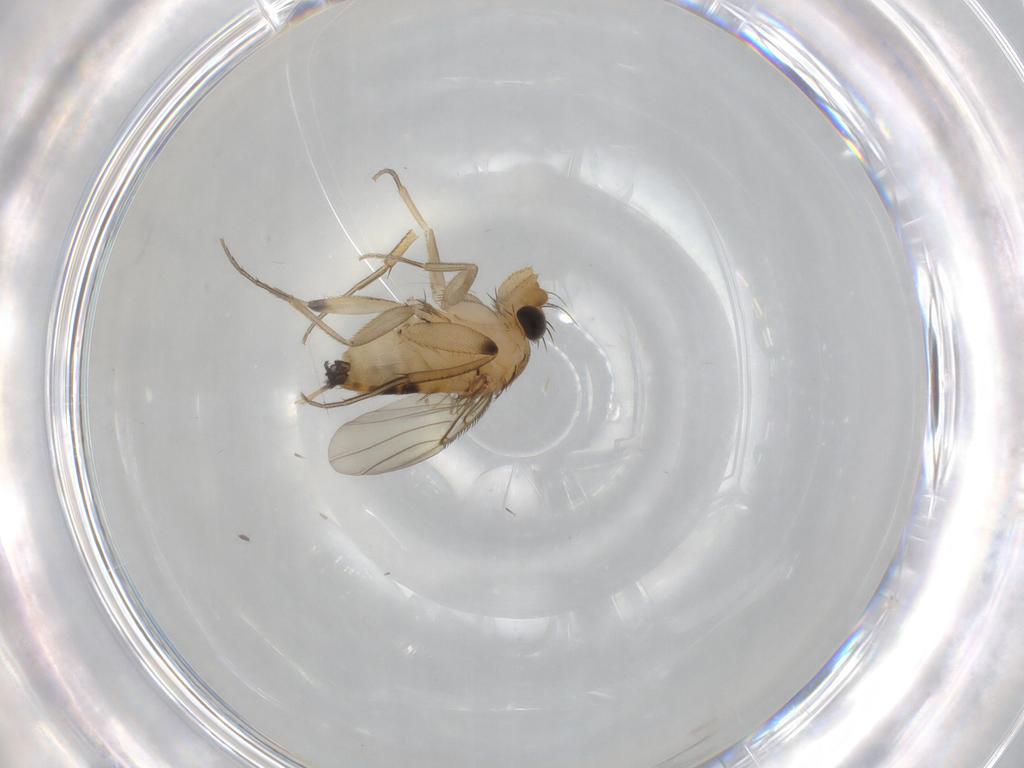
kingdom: Animalia
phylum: Arthropoda
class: Insecta
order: Diptera
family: Phoridae
